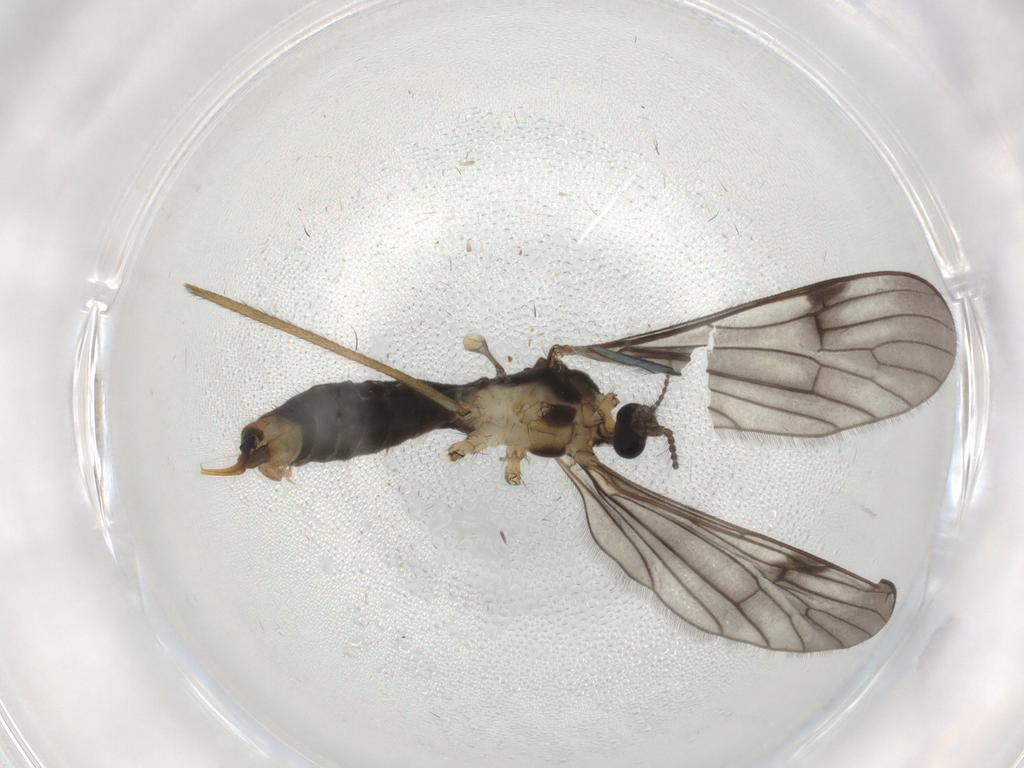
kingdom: Animalia
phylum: Arthropoda
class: Insecta
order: Diptera
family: Limoniidae
